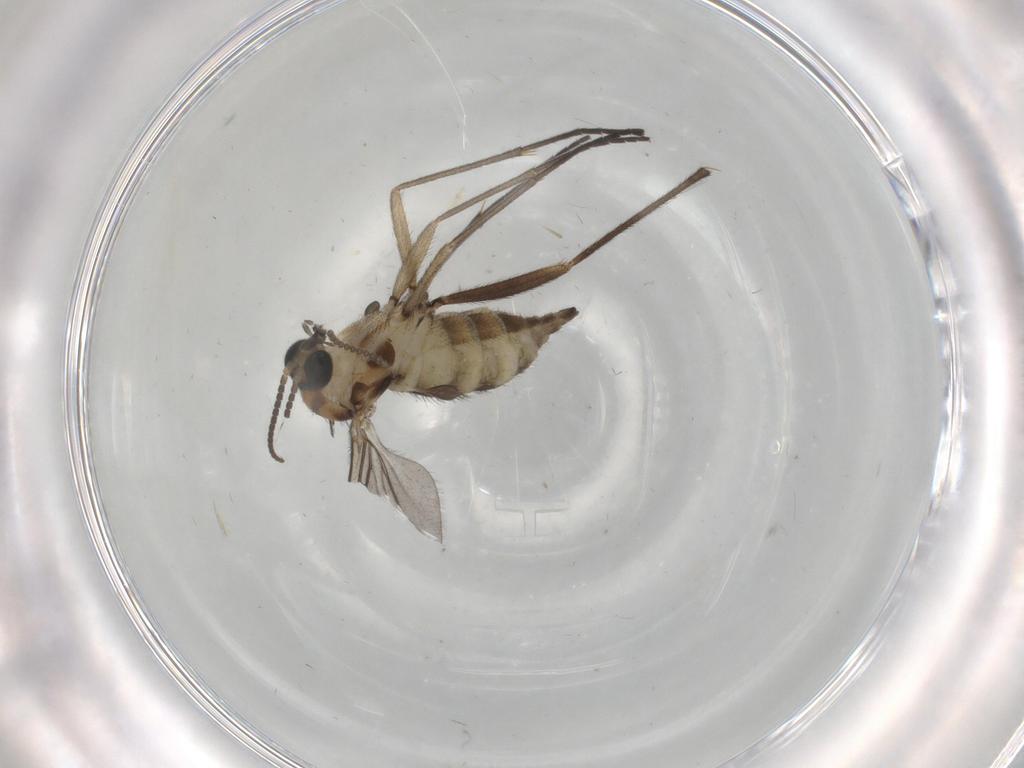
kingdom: Animalia
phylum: Arthropoda
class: Insecta
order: Diptera
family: Sciaridae
